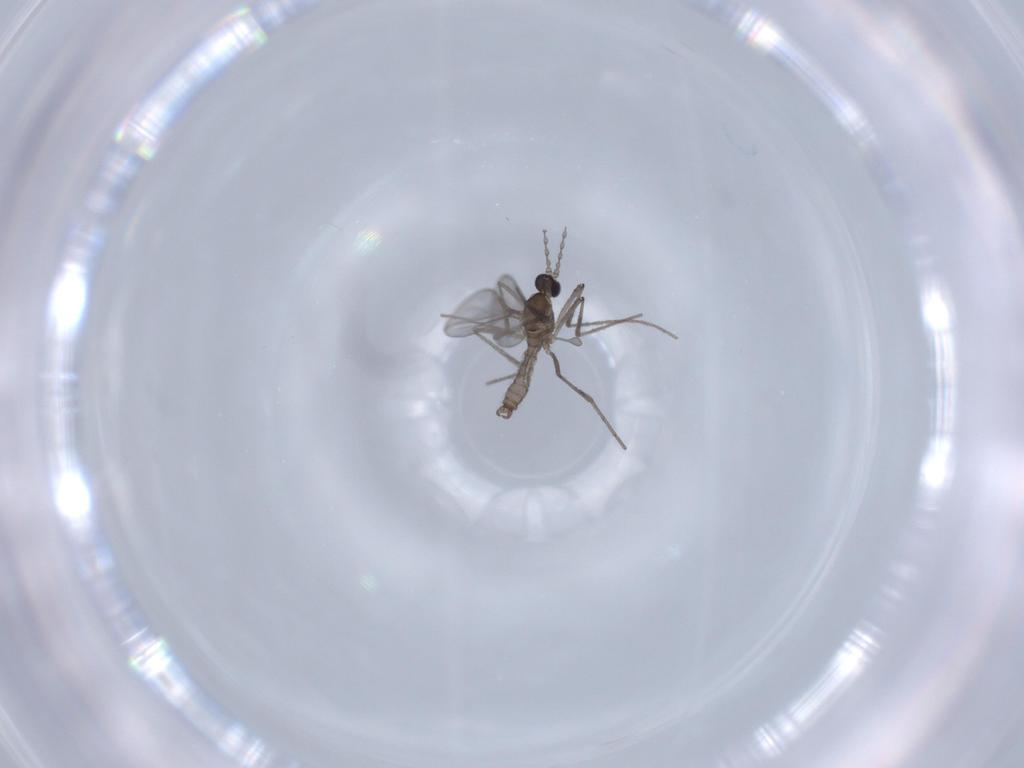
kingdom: Animalia
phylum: Arthropoda
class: Insecta
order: Diptera
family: Cecidomyiidae
